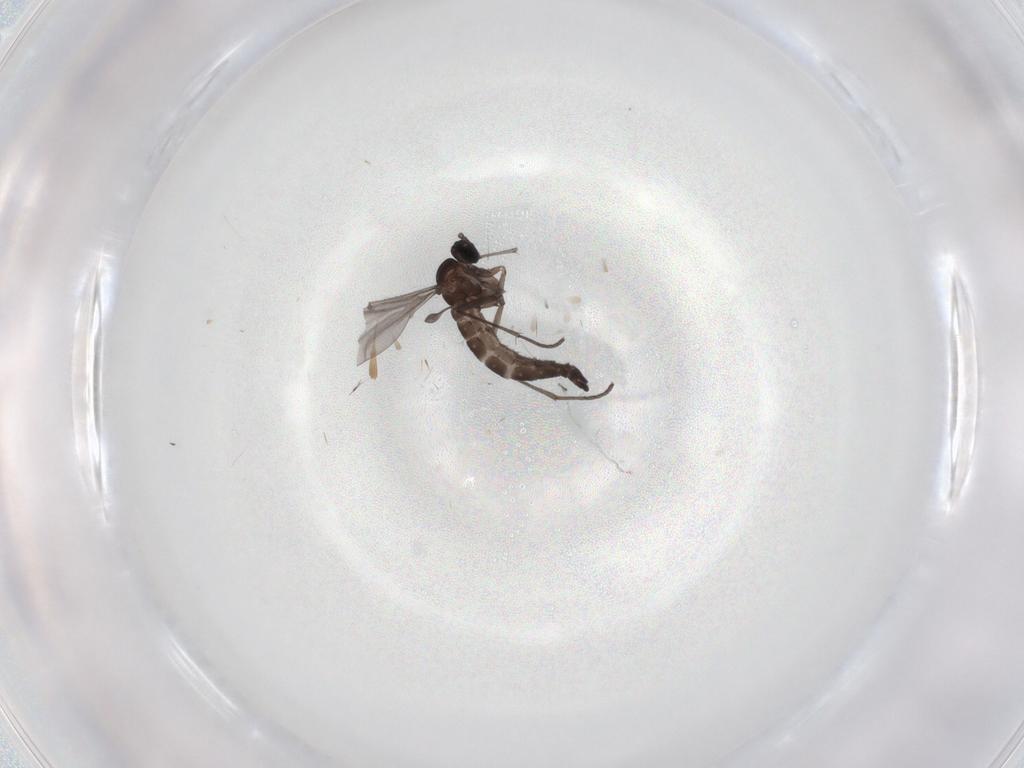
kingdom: Animalia
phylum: Arthropoda
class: Insecta
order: Diptera
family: Sciaridae
